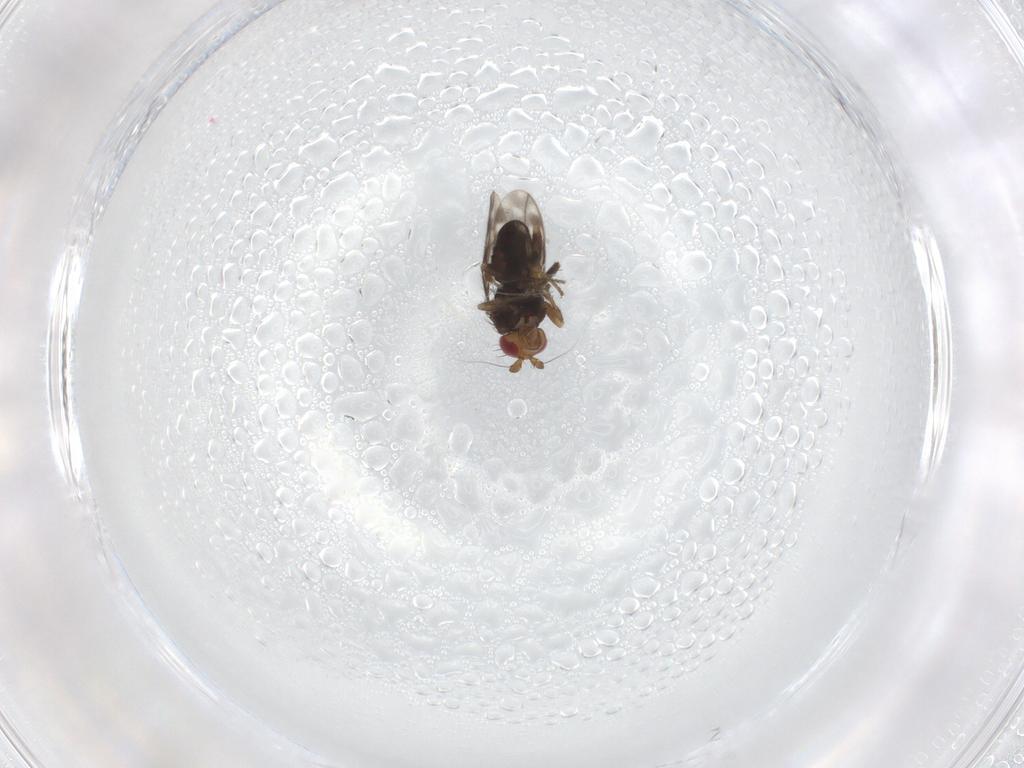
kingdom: Animalia
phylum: Arthropoda
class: Insecta
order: Diptera
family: Sphaeroceridae
